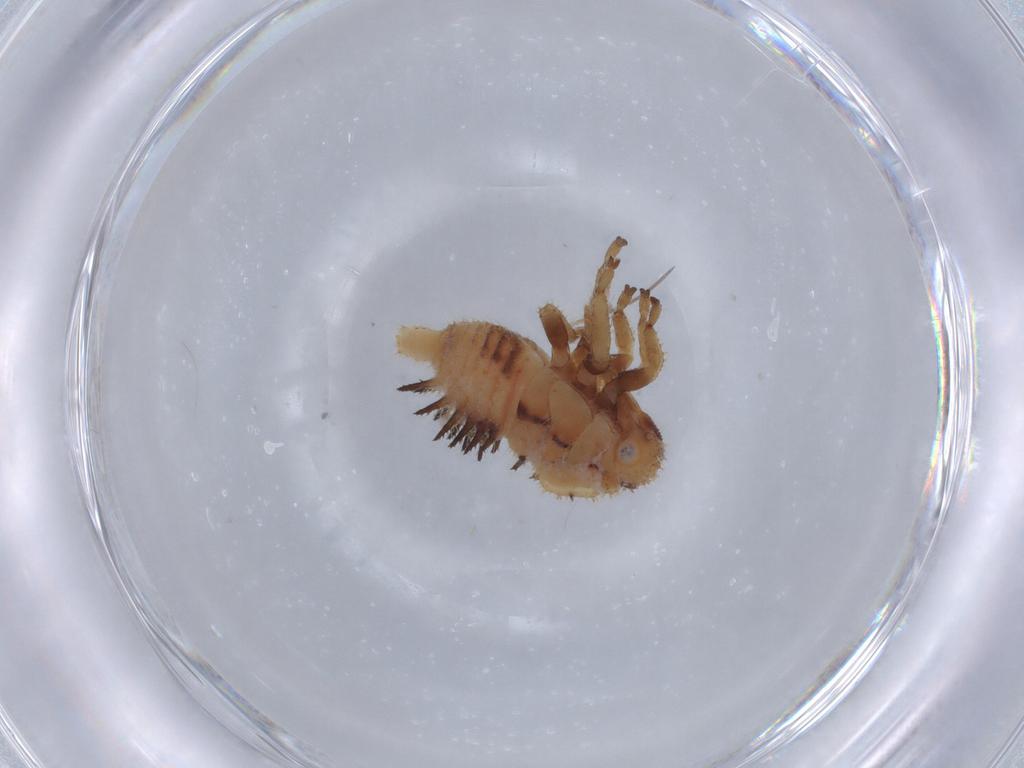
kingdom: Animalia
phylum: Arthropoda
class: Insecta
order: Hemiptera
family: Membracidae
